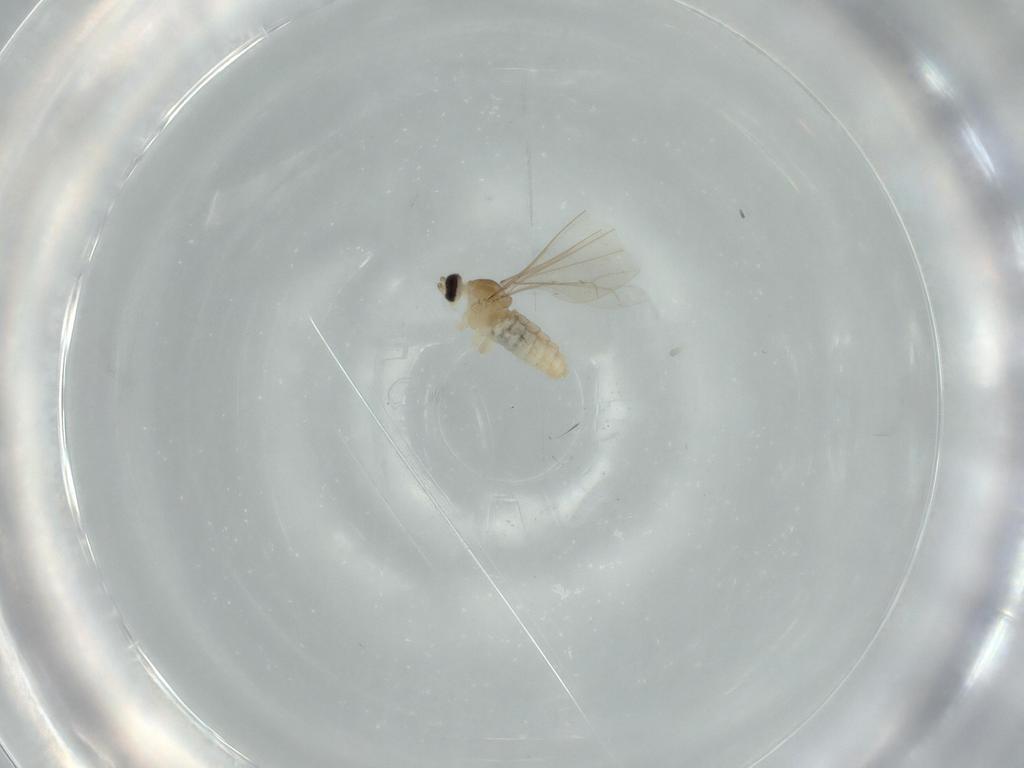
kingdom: Animalia
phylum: Arthropoda
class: Insecta
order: Diptera
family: Cecidomyiidae
